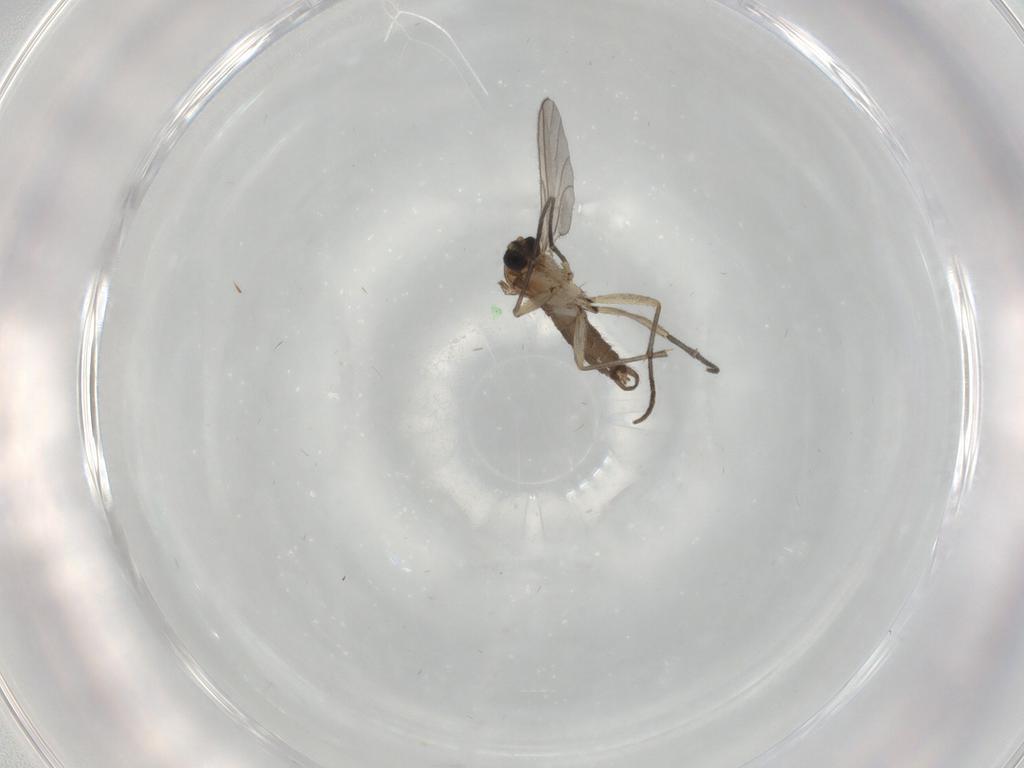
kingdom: Animalia
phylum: Arthropoda
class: Insecta
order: Diptera
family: Sciaridae
